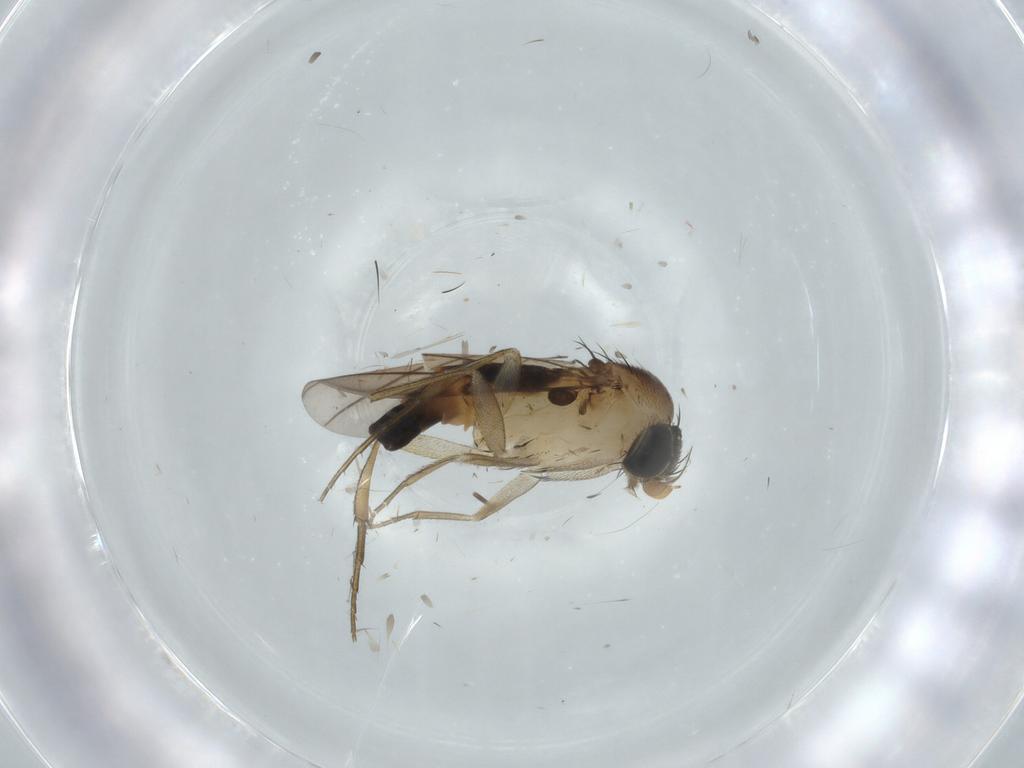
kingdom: Animalia
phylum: Arthropoda
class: Insecta
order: Diptera
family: Phoridae
